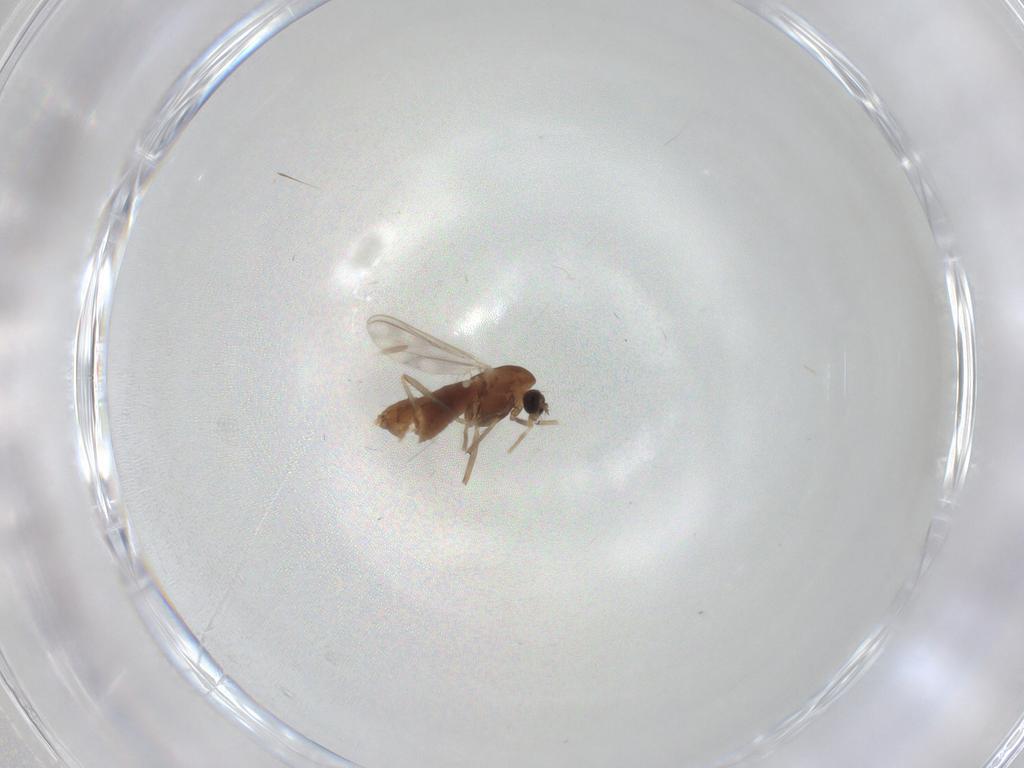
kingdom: Animalia
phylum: Arthropoda
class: Insecta
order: Diptera
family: Chironomidae
